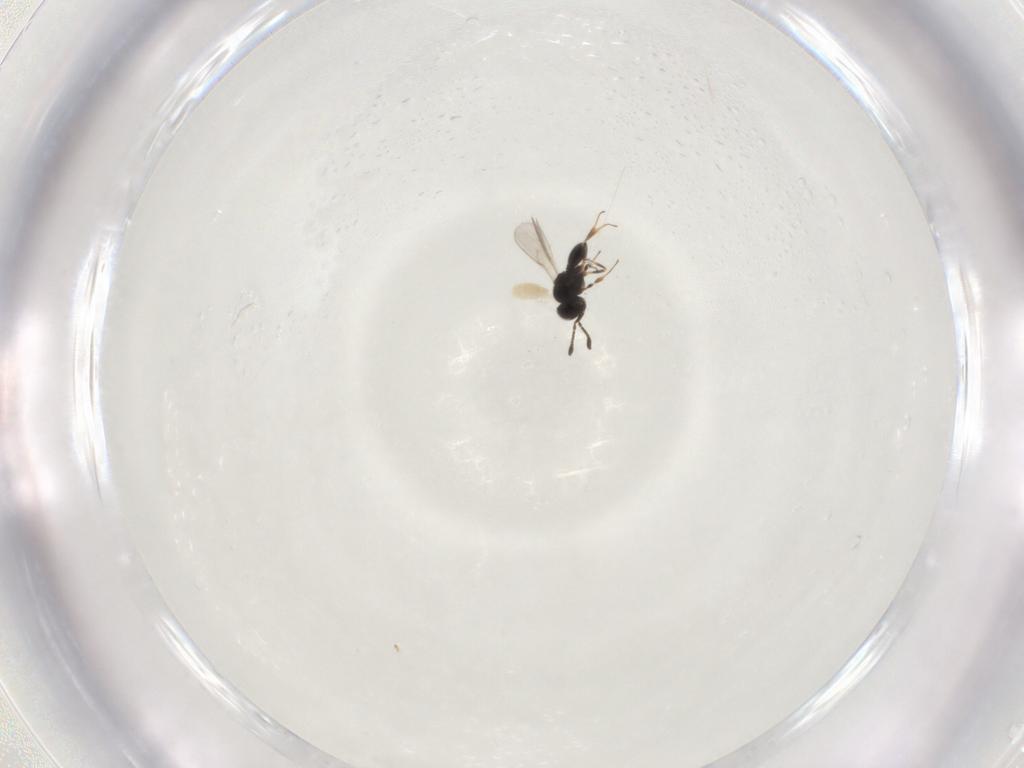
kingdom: Animalia
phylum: Arthropoda
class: Insecta
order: Hymenoptera
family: Scelionidae
